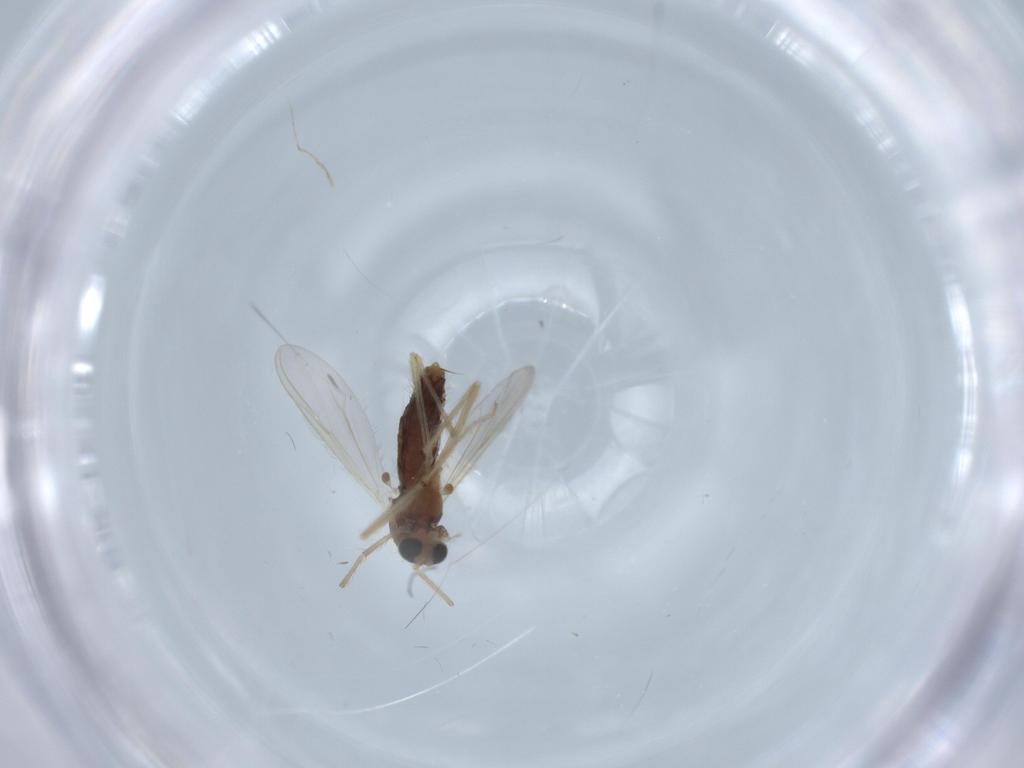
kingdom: Animalia
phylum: Arthropoda
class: Insecta
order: Diptera
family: Chironomidae
